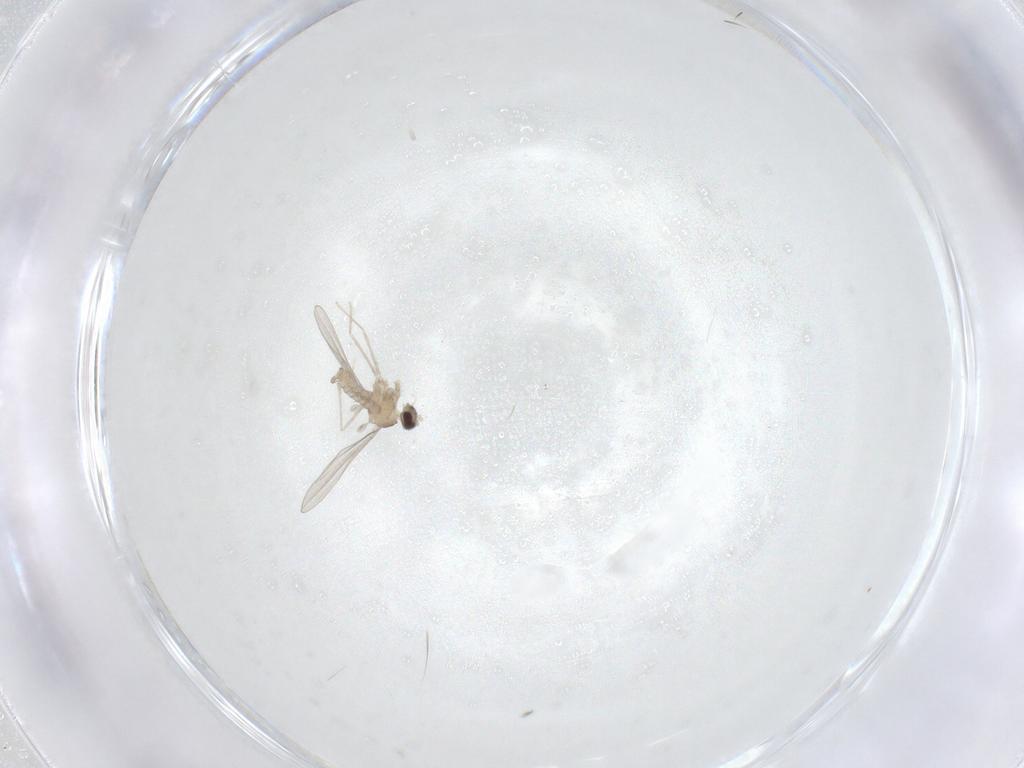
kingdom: Animalia
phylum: Arthropoda
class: Insecta
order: Diptera
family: Cecidomyiidae
